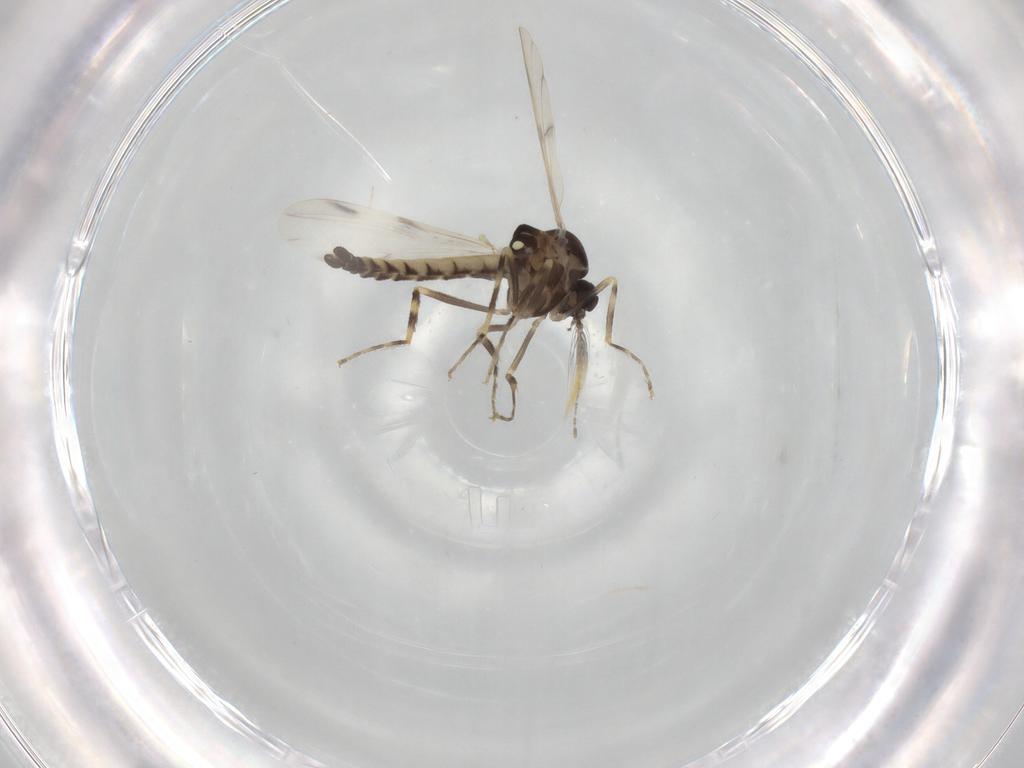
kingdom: Animalia
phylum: Arthropoda
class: Insecta
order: Diptera
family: Ceratopogonidae
